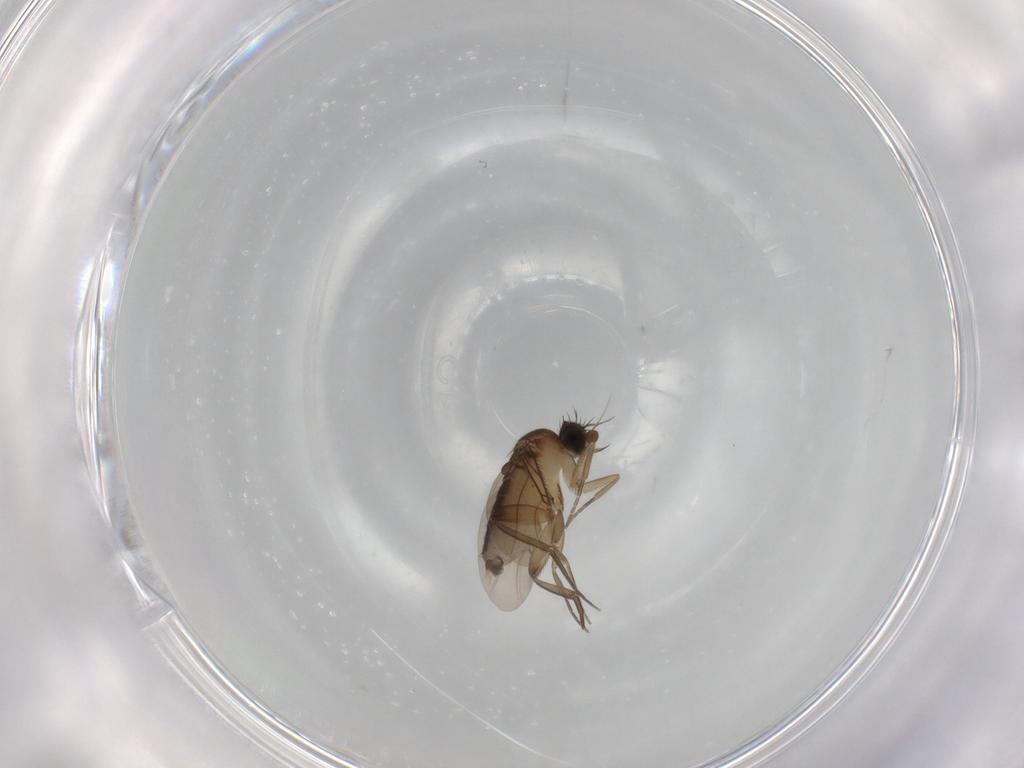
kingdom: Animalia
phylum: Arthropoda
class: Insecta
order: Diptera
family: Phoridae
